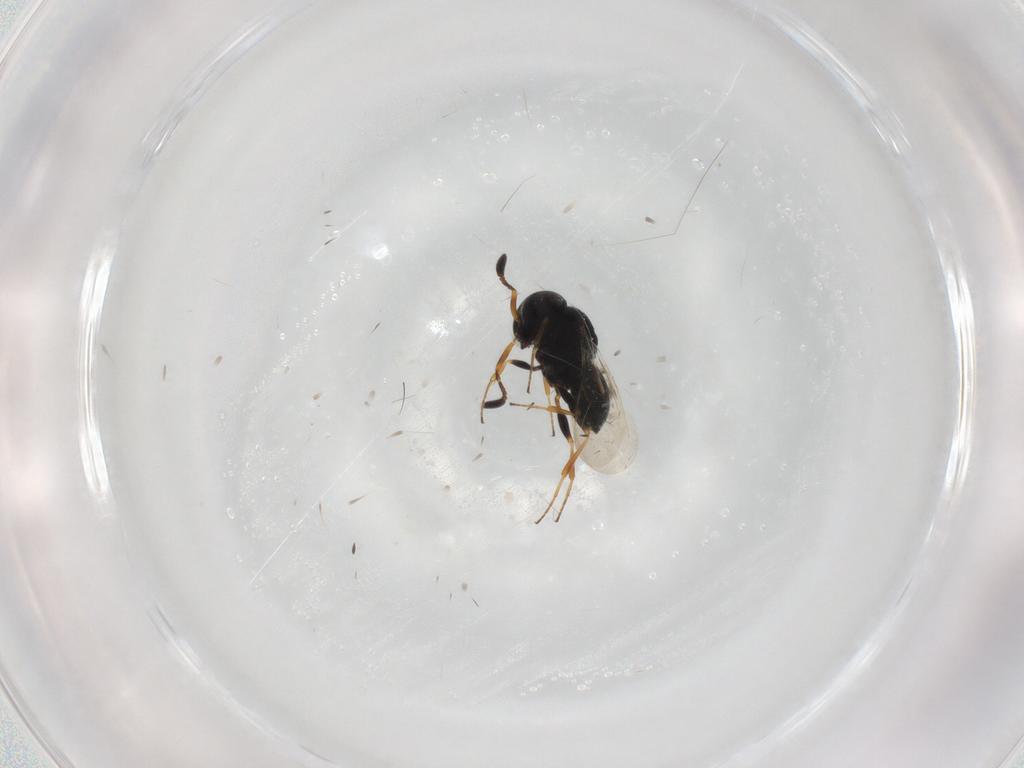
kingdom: Animalia
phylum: Arthropoda
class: Insecta
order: Coleoptera
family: Curculionidae
